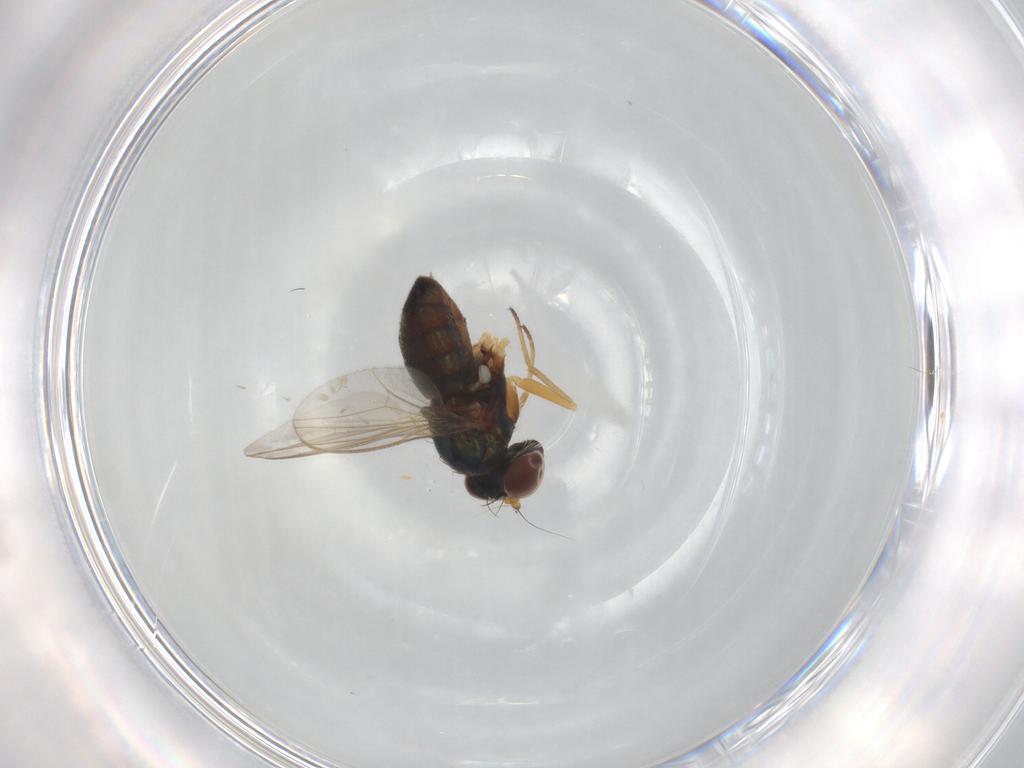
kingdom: Animalia
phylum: Arthropoda
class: Insecta
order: Diptera
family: Dolichopodidae
